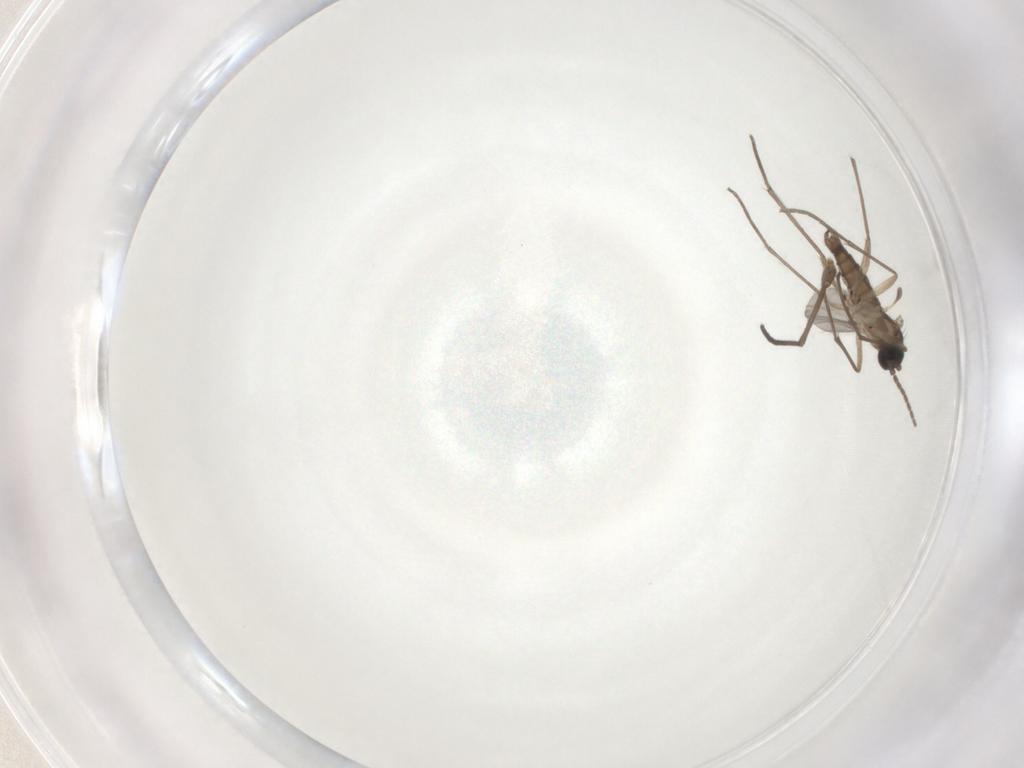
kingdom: Animalia
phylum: Arthropoda
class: Insecta
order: Diptera
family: Sciaridae
